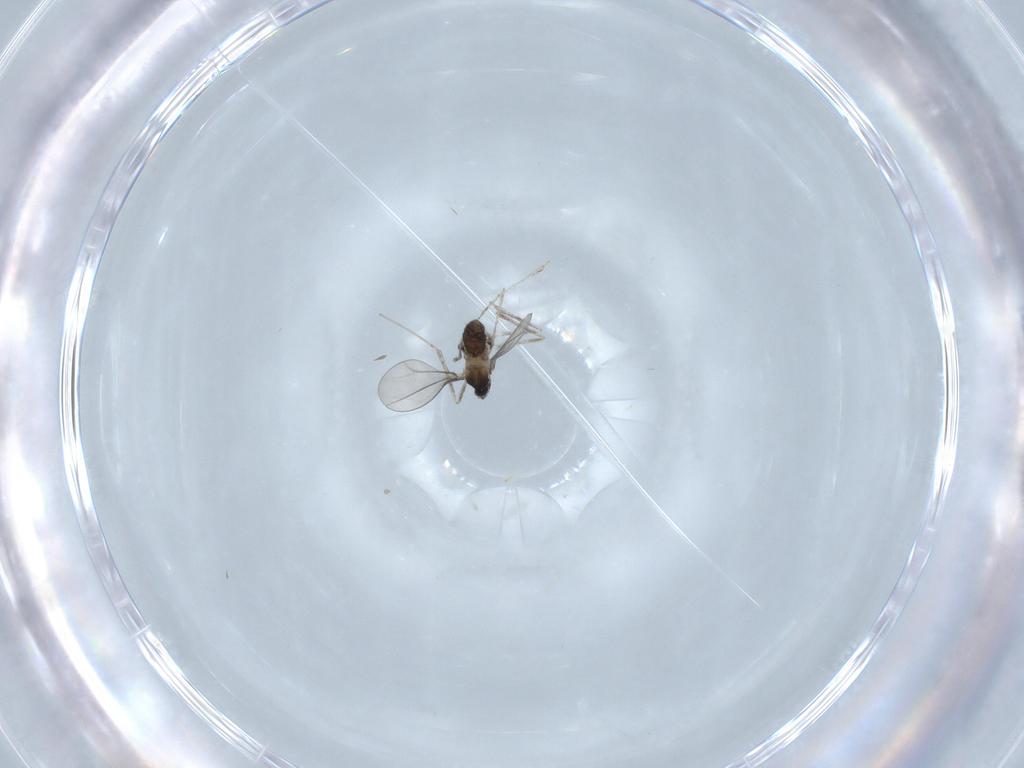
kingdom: Animalia
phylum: Arthropoda
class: Insecta
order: Diptera
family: Cecidomyiidae
